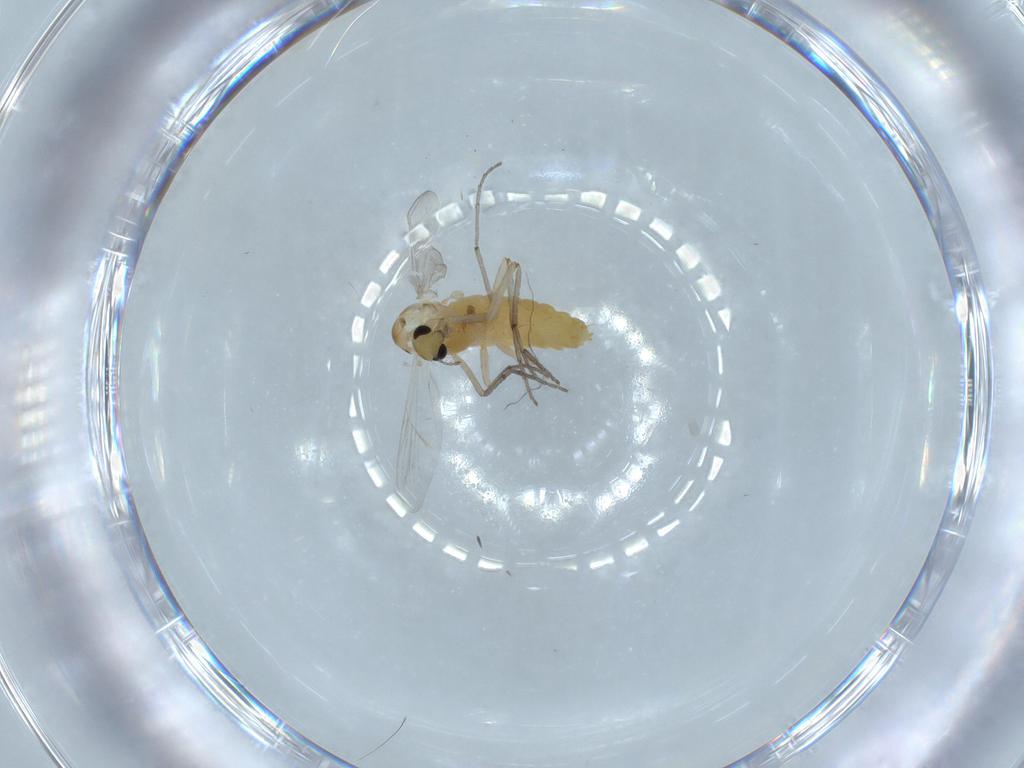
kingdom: Animalia
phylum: Arthropoda
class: Insecta
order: Diptera
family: Chironomidae
